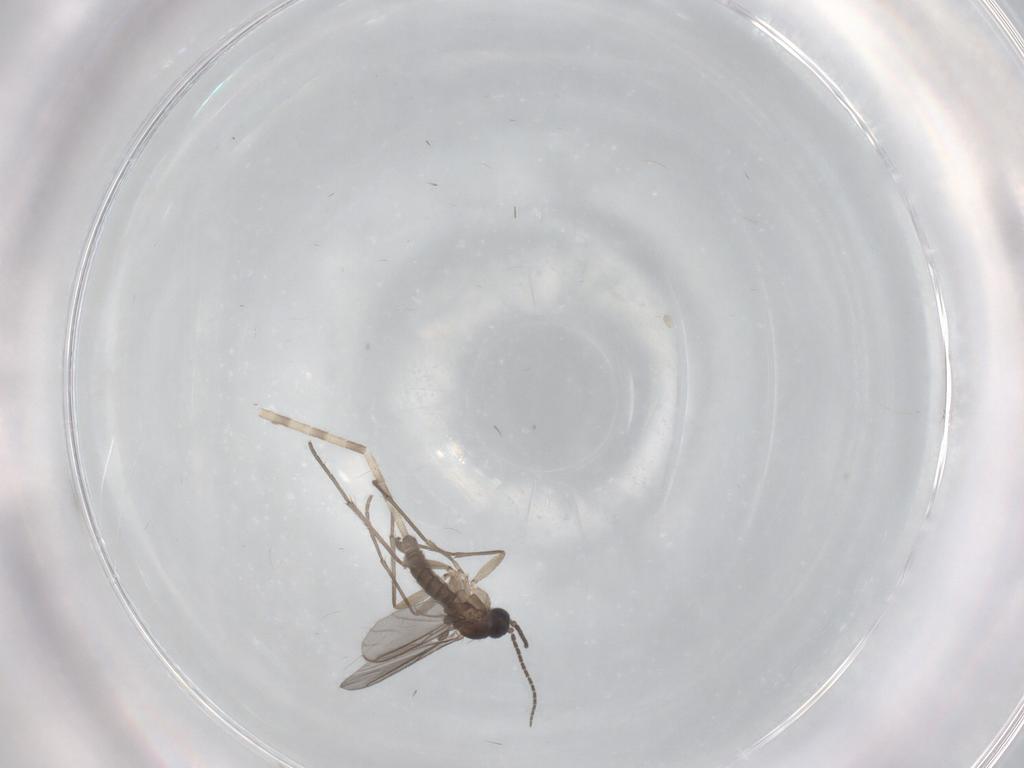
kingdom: Animalia
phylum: Arthropoda
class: Insecta
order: Diptera
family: Sciaridae
